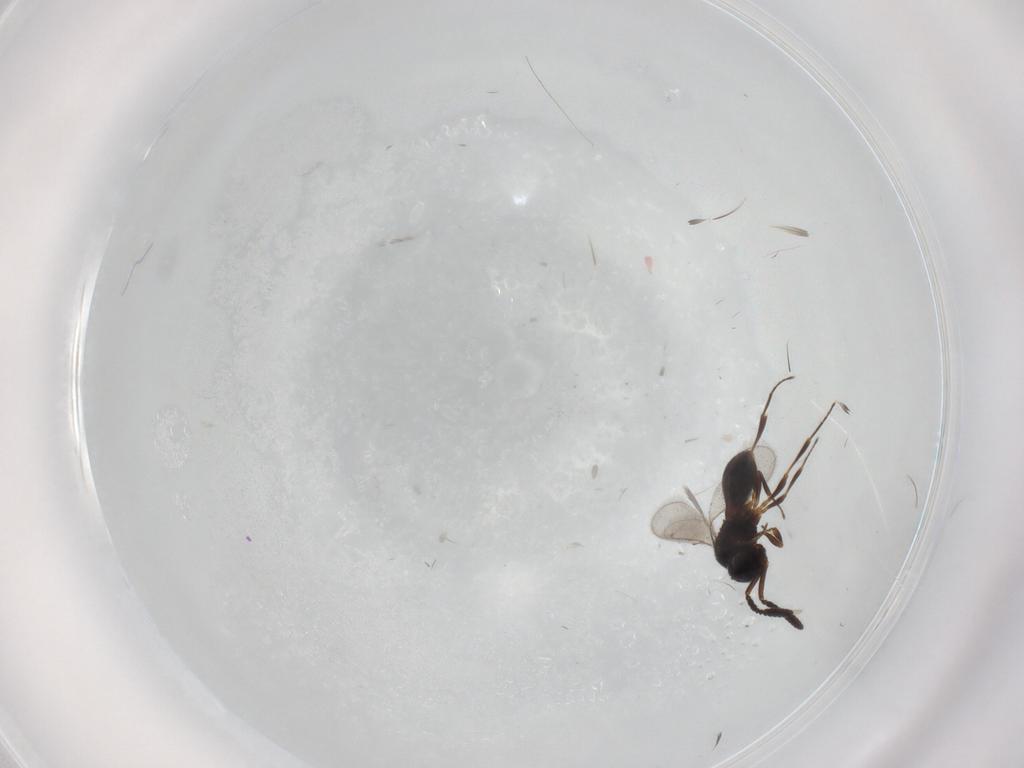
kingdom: Animalia
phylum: Arthropoda
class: Insecta
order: Hymenoptera
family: Scelionidae
